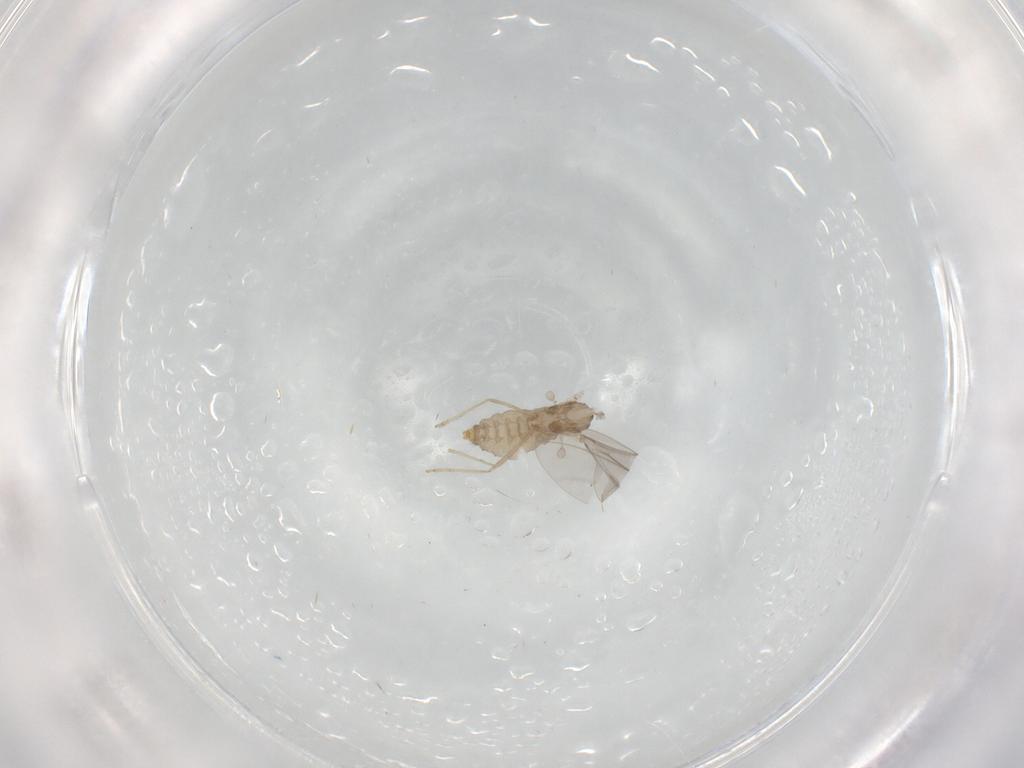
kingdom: Animalia
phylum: Arthropoda
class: Insecta
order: Diptera
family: Cecidomyiidae
